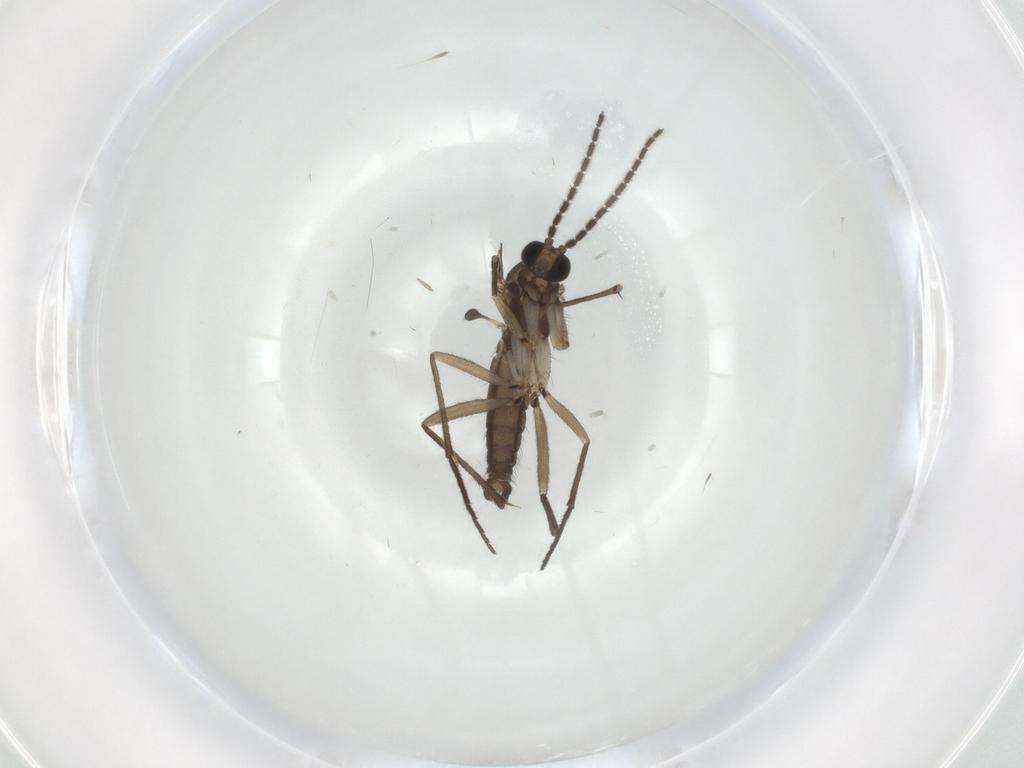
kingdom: Animalia
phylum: Arthropoda
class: Insecta
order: Diptera
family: Sciaridae
